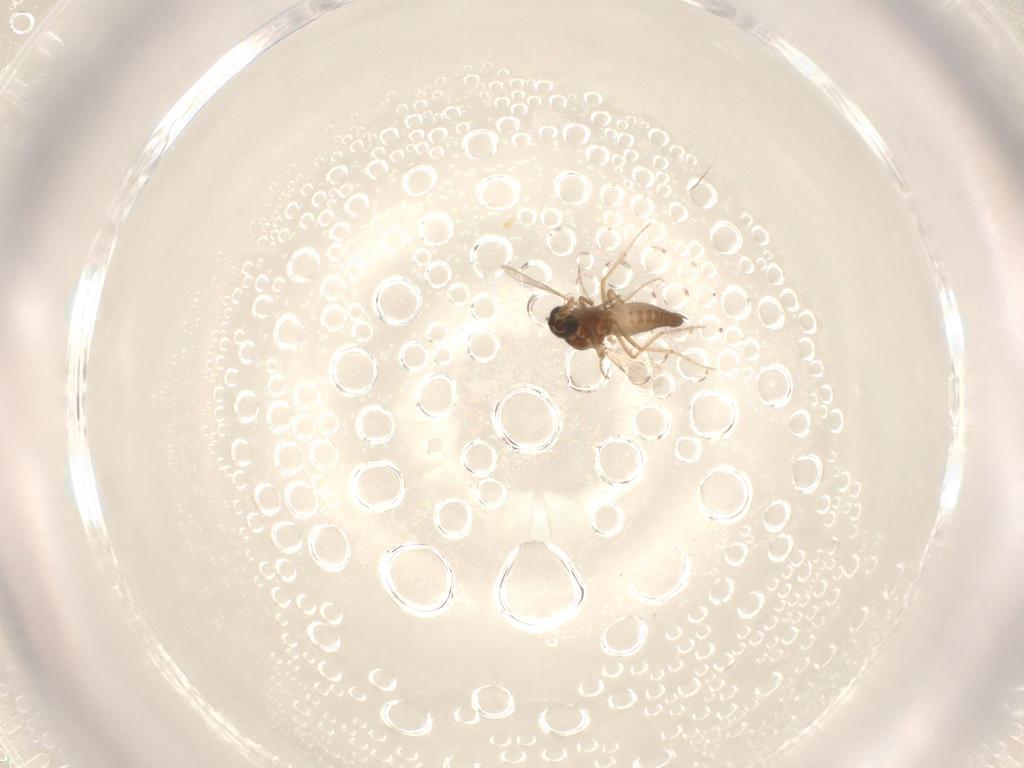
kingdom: Animalia
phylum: Arthropoda
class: Insecta
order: Diptera
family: Ceratopogonidae
